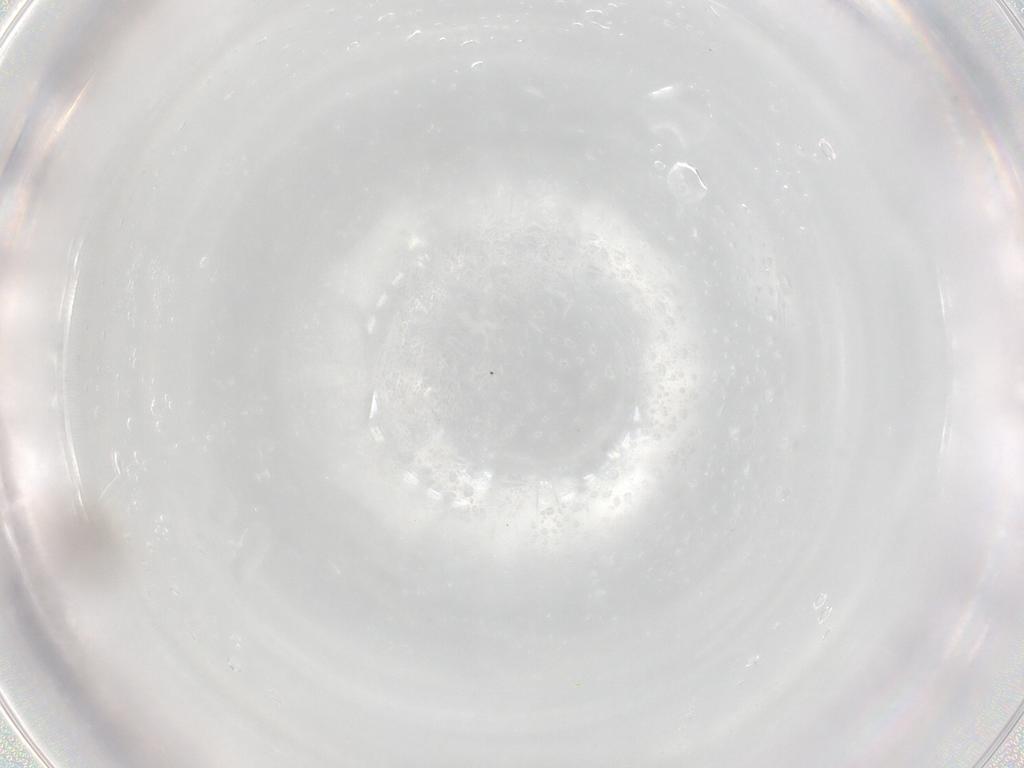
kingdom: Animalia
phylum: Arthropoda
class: Insecta
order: Hymenoptera
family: Platygastridae
